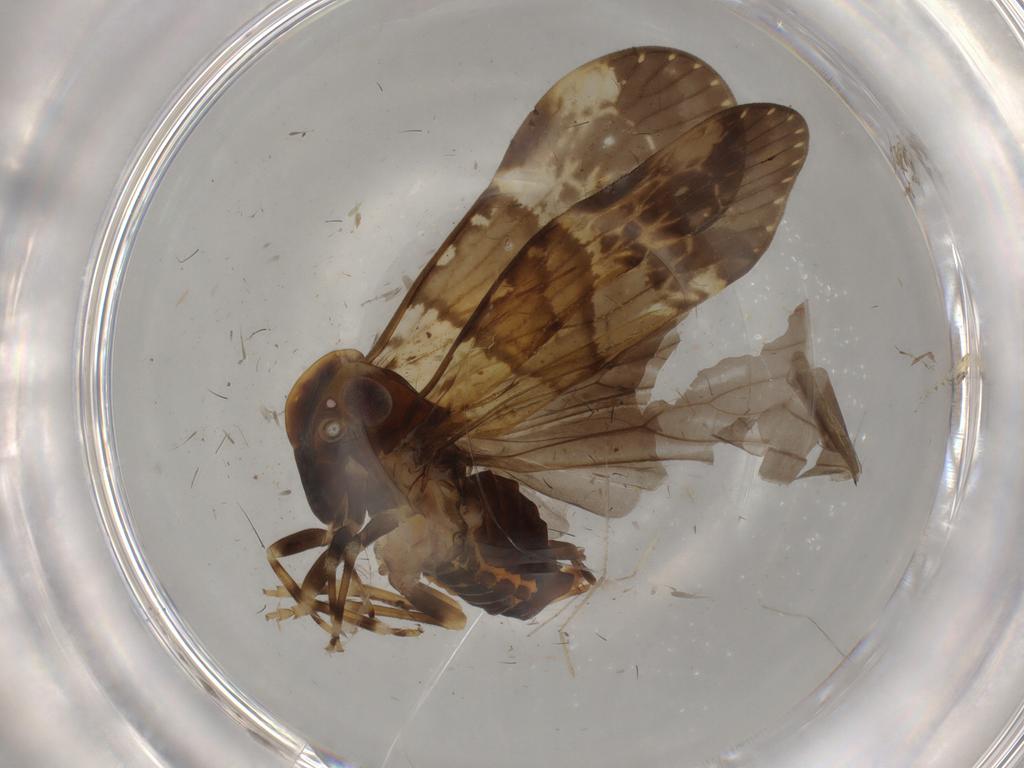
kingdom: Animalia
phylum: Arthropoda
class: Insecta
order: Hemiptera
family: Cixiidae
